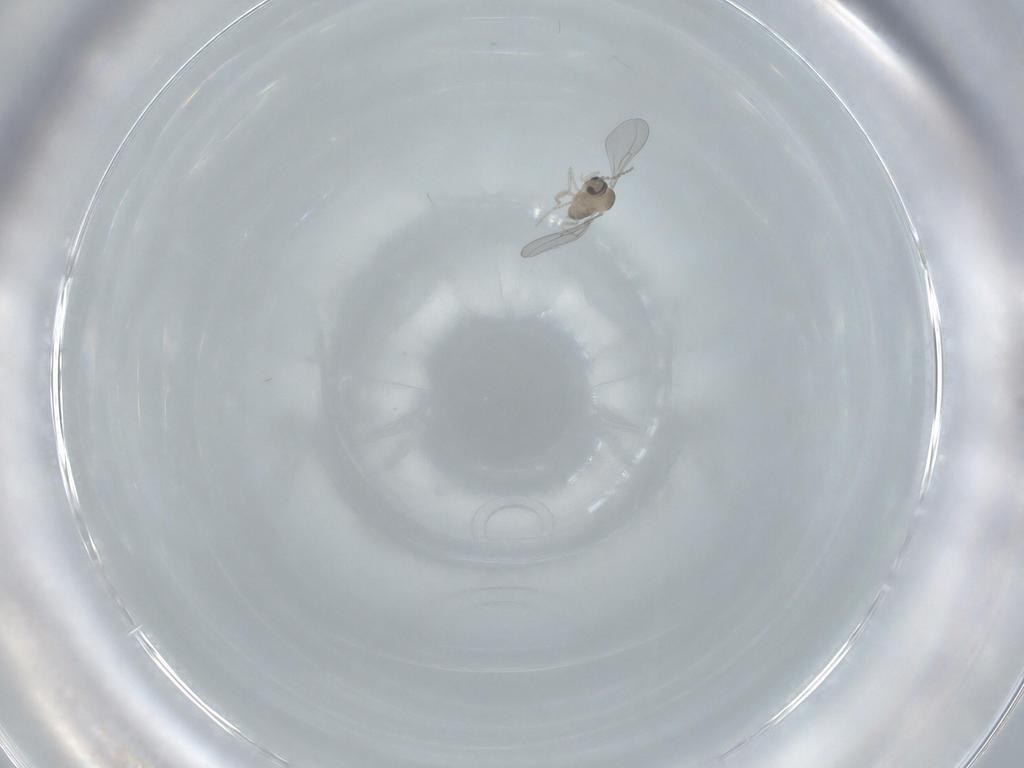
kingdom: Animalia
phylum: Arthropoda
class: Insecta
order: Diptera
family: Cecidomyiidae
